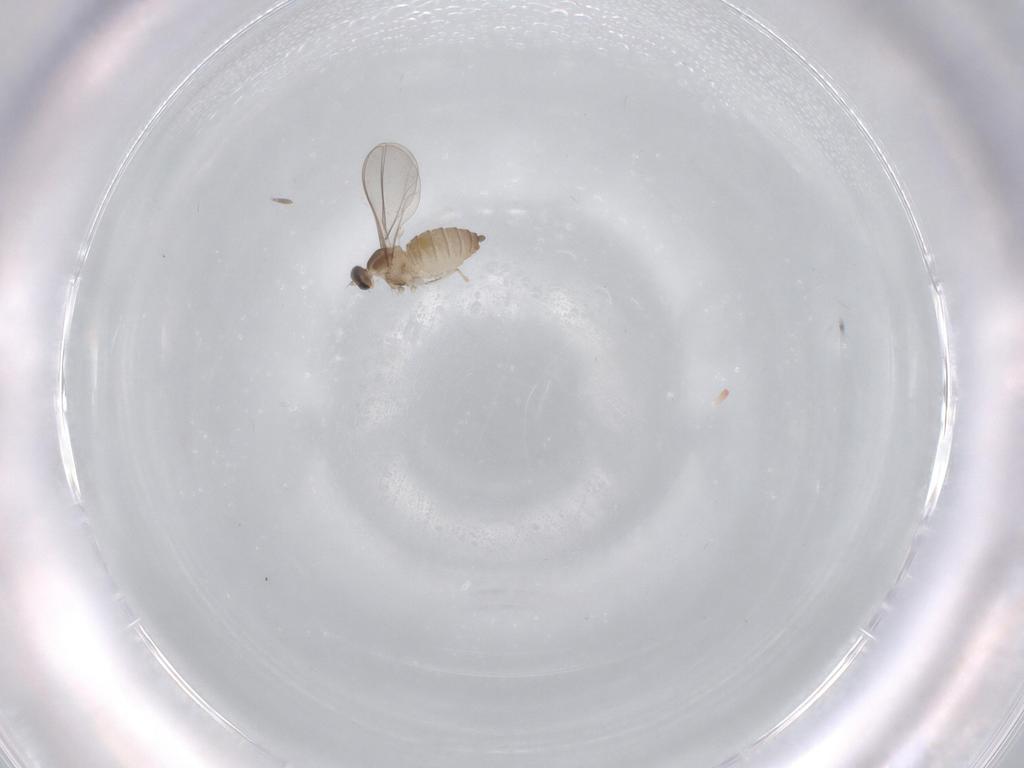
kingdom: Animalia
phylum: Arthropoda
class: Insecta
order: Diptera
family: Cecidomyiidae
